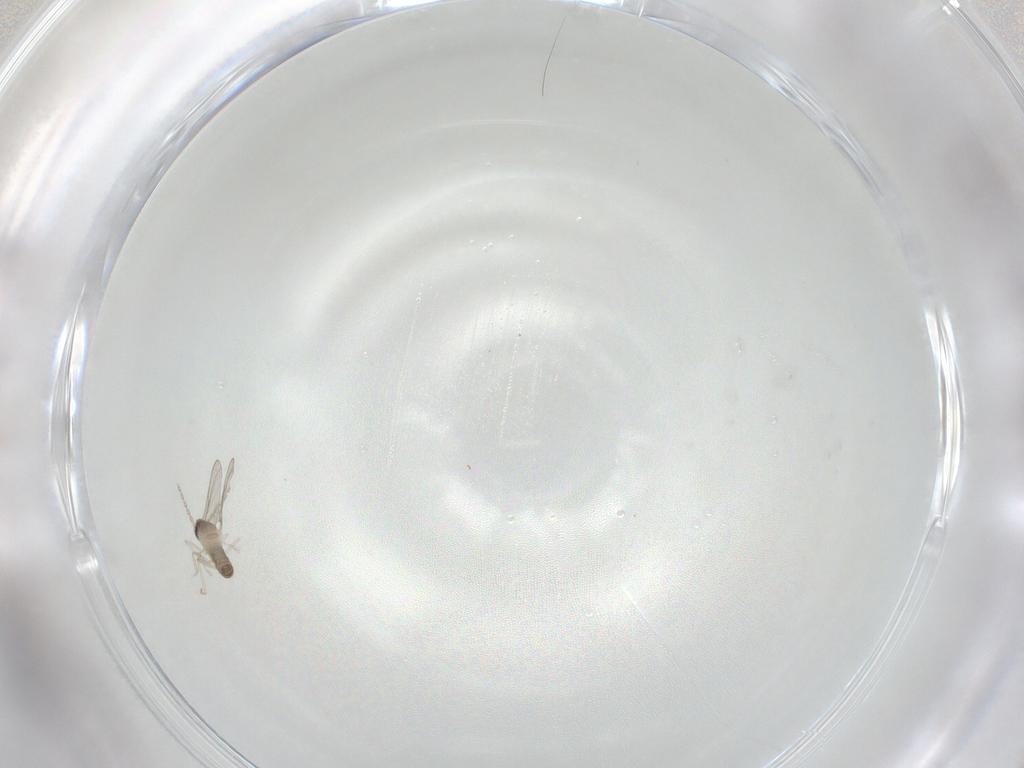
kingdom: Animalia
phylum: Arthropoda
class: Insecta
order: Diptera
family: Cecidomyiidae
